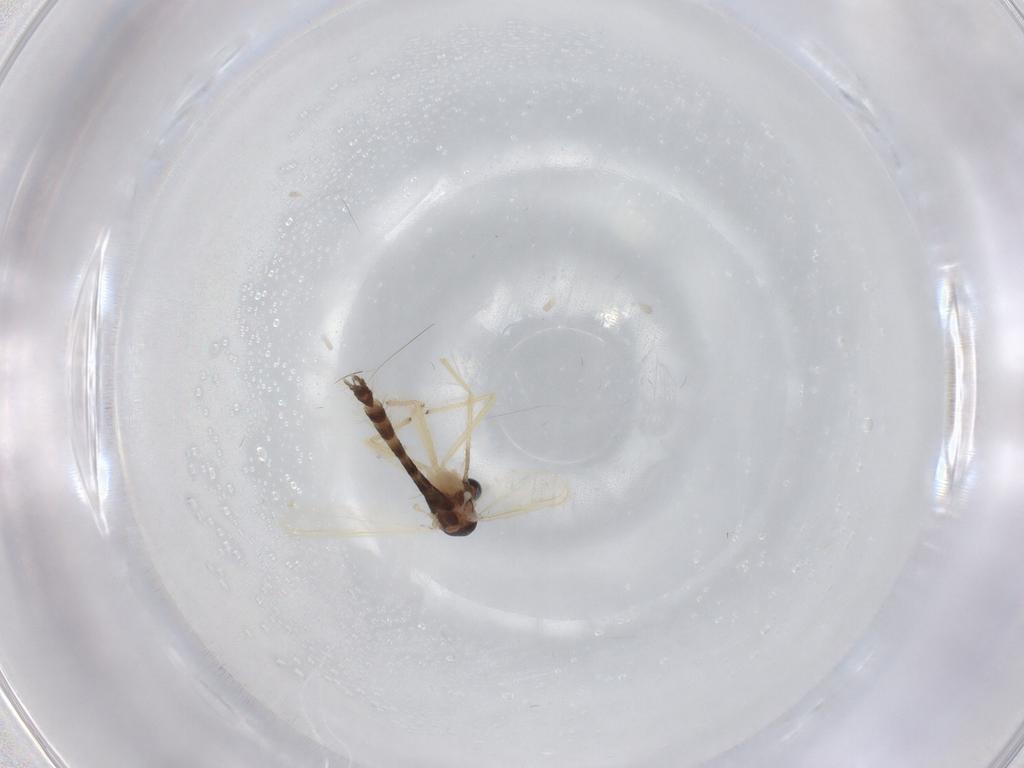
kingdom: Animalia
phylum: Arthropoda
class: Insecta
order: Diptera
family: Chironomidae
